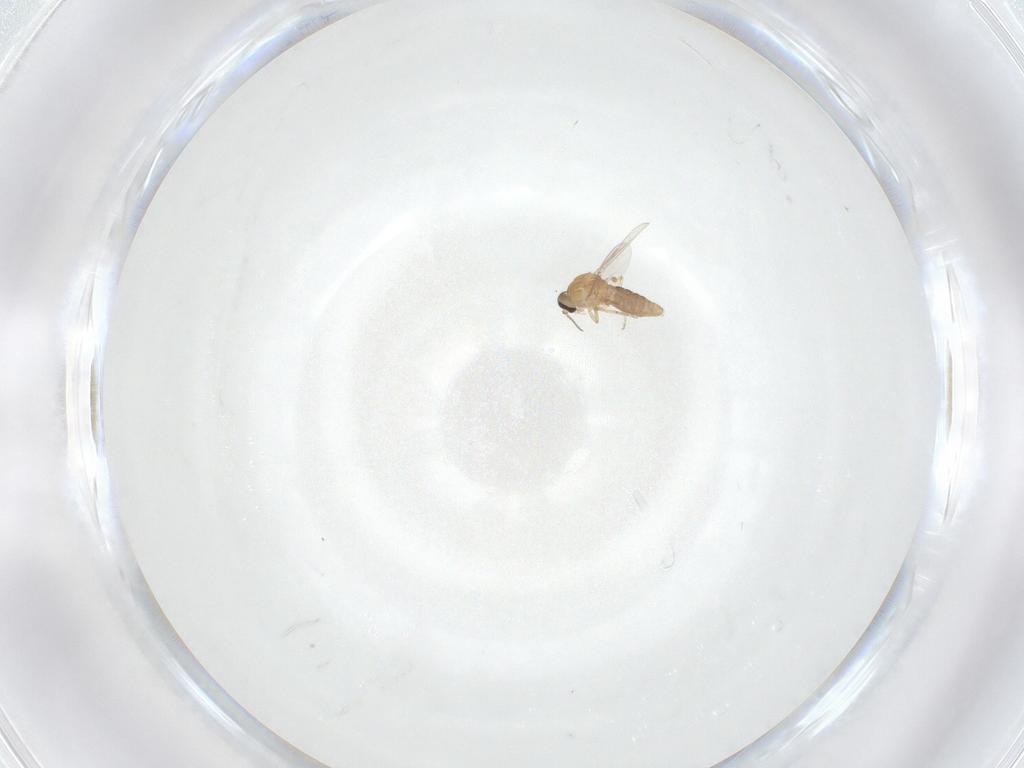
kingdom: Animalia
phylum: Arthropoda
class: Insecta
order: Diptera
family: Ceratopogonidae
